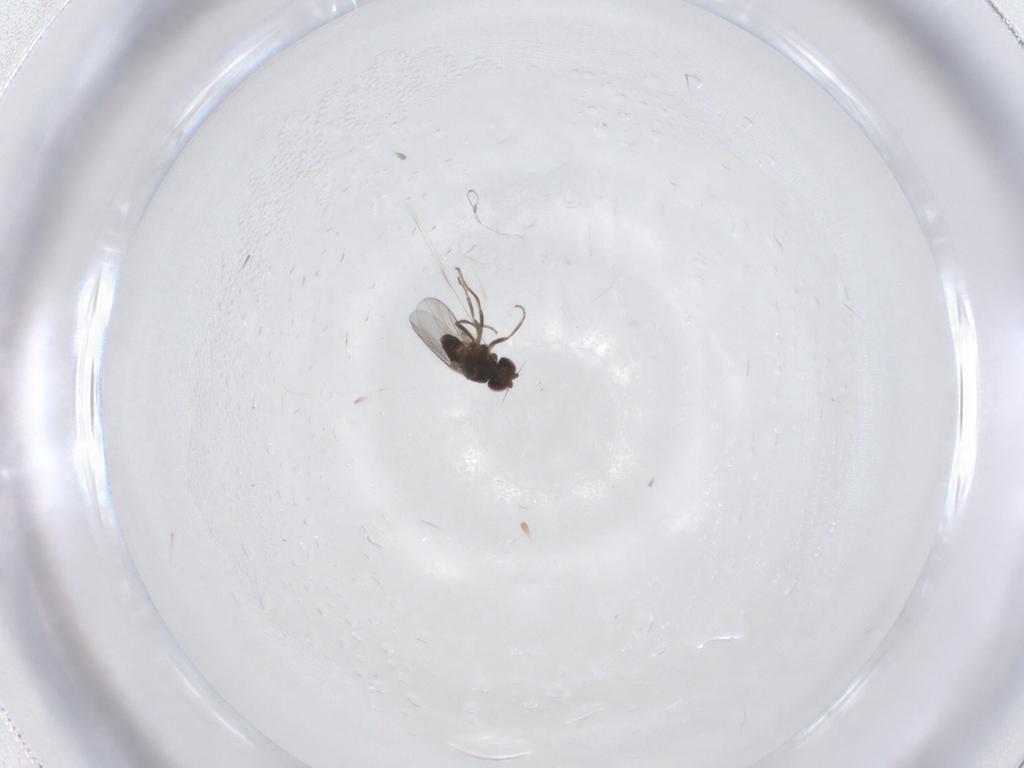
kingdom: Animalia
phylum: Arthropoda
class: Insecta
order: Diptera
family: Chloropidae
